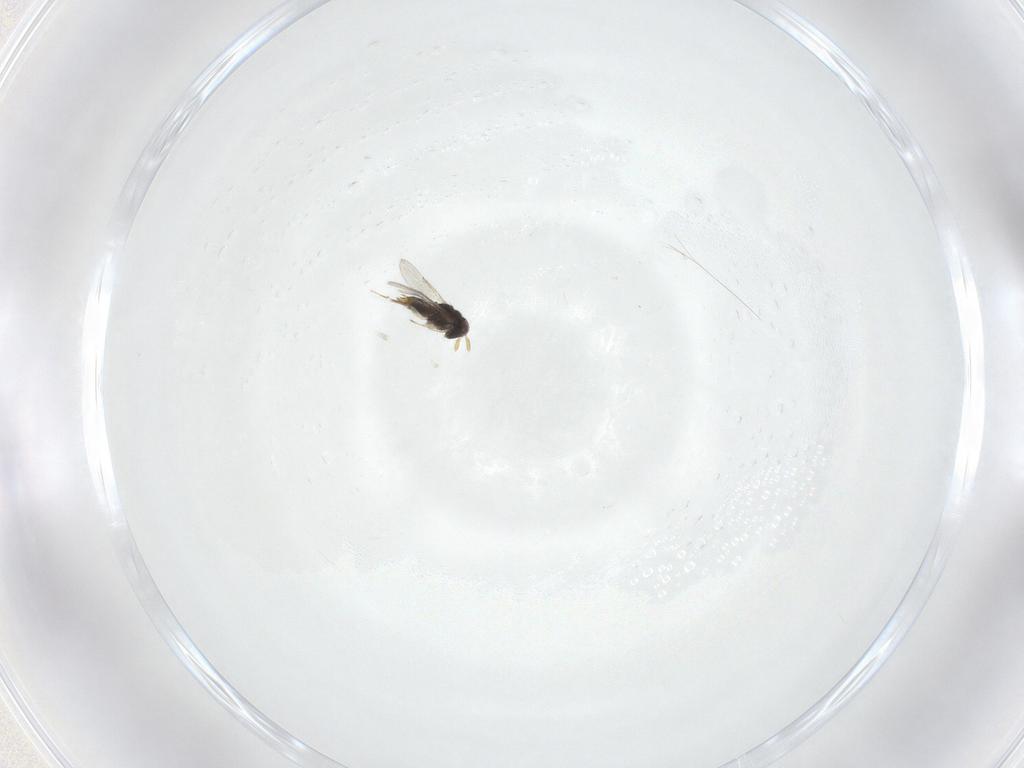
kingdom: Animalia
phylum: Arthropoda
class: Insecta
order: Hymenoptera
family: Aphelinidae
